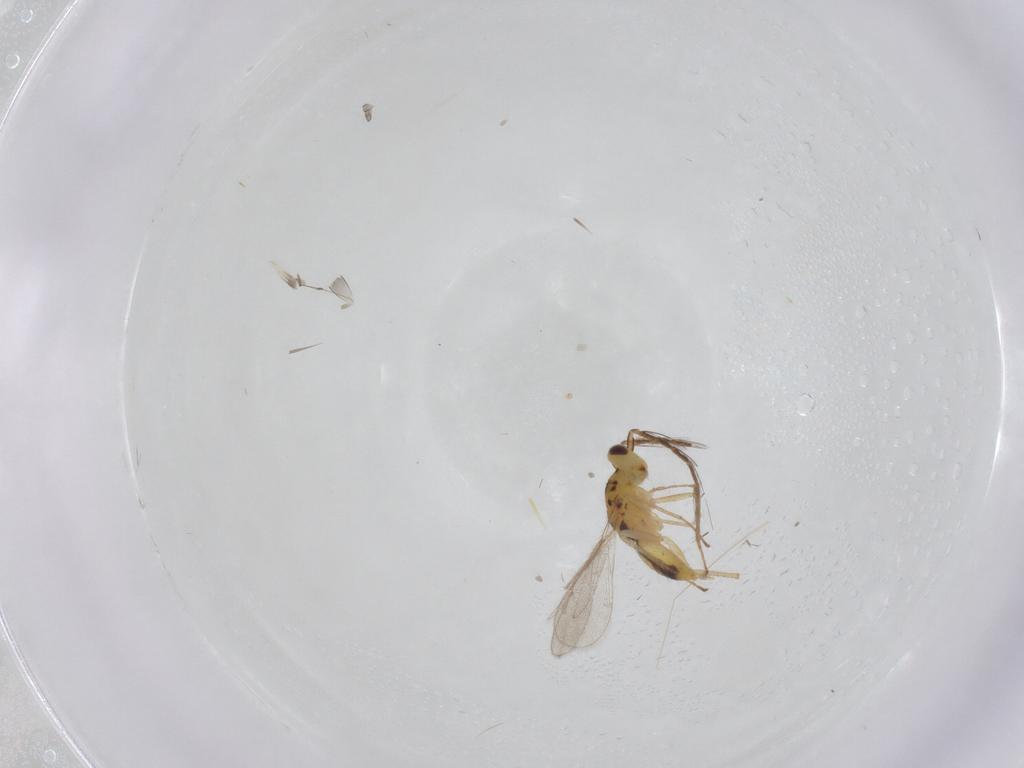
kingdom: Animalia
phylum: Arthropoda
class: Insecta
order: Hymenoptera
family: Eulophidae
